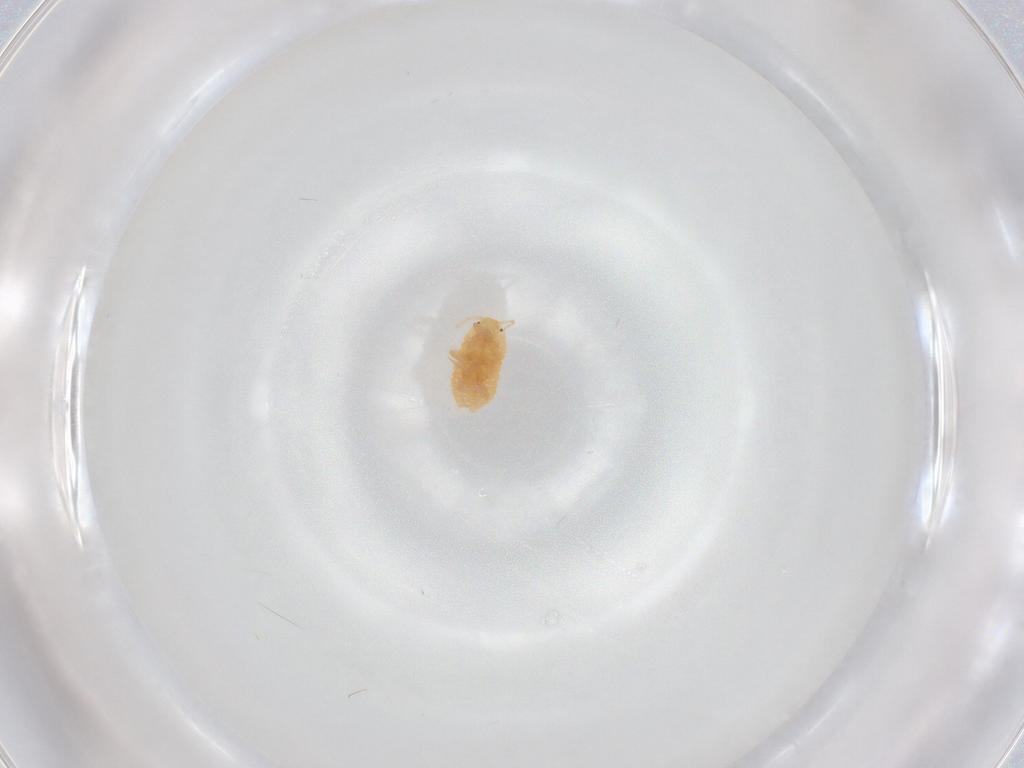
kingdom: Animalia
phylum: Arthropoda
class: Insecta
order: Hemiptera
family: Pseudococcidae
